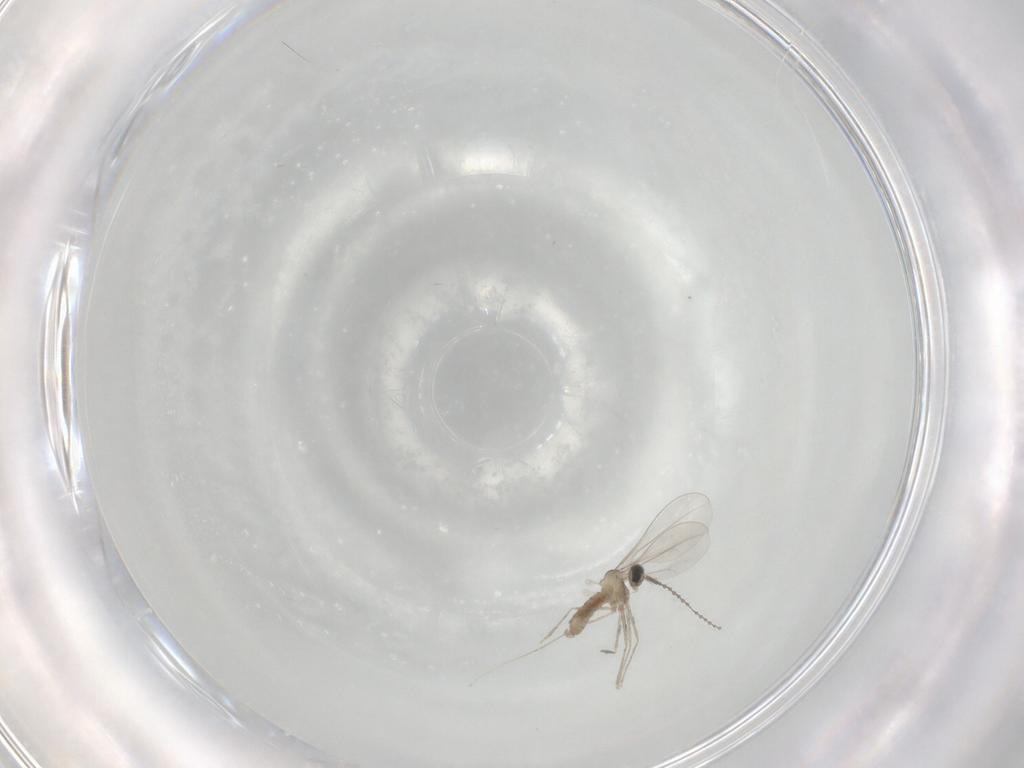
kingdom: Animalia
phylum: Arthropoda
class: Insecta
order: Diptera
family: Cecidomyiidae
